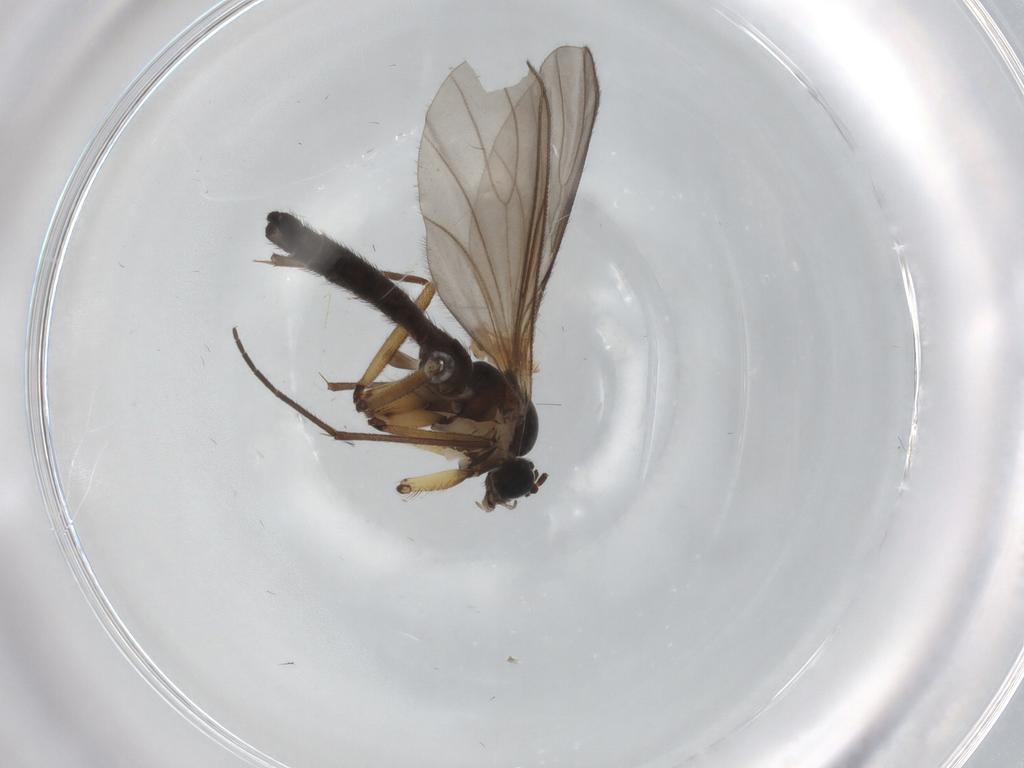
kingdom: Animalia
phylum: Arthropoda
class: Insecta
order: Diptera
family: Sciaridae
